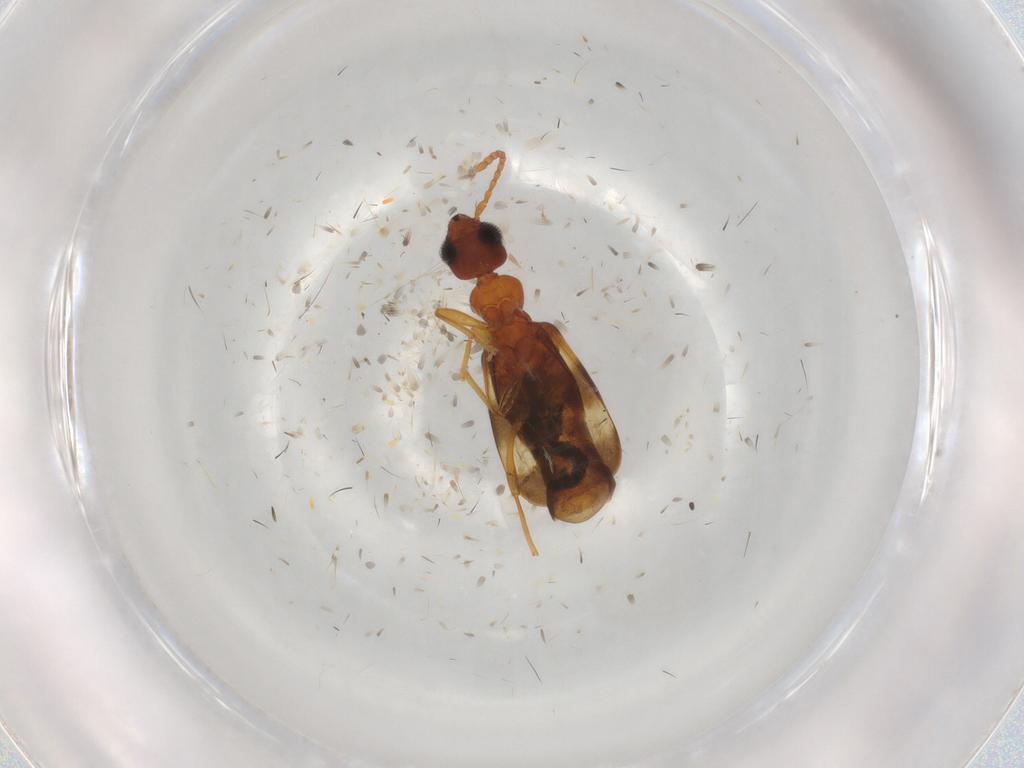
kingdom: Animalia
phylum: Arthropoda
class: Insecta
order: Coleoptera
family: Anthicidae
